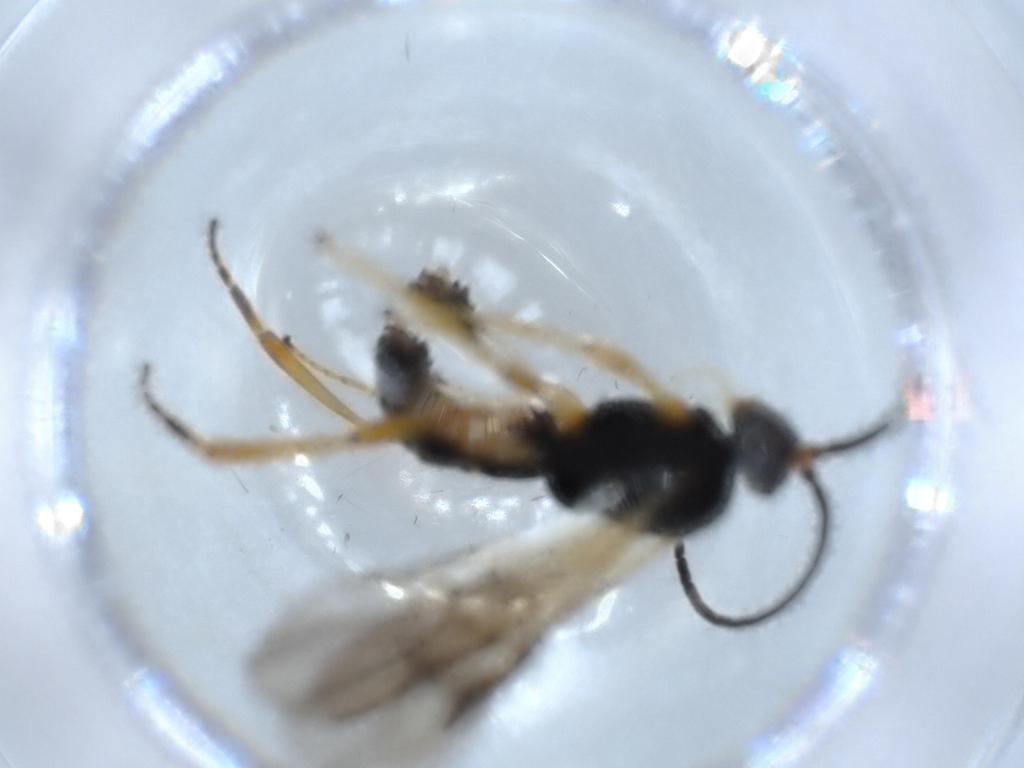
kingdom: Animalia
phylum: Arthropoda
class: Insecta
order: Hymenoptera
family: Braconidae
